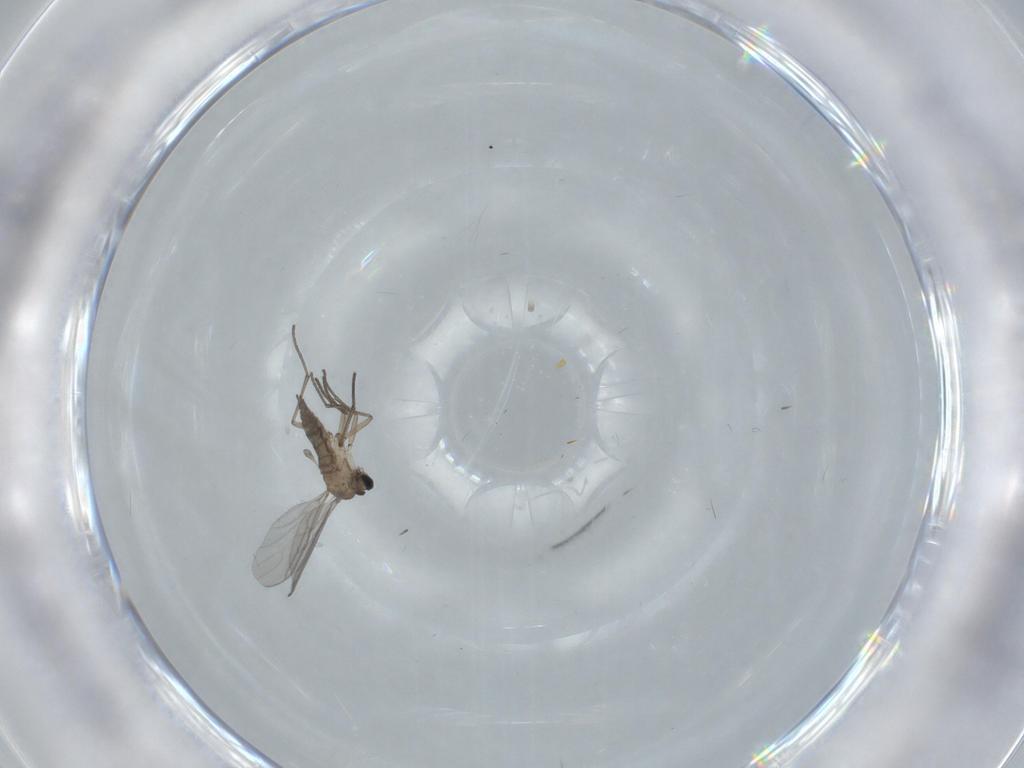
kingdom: Animalia
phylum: Arthropoda
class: Insecta
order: Diptera
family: Sciaridae
